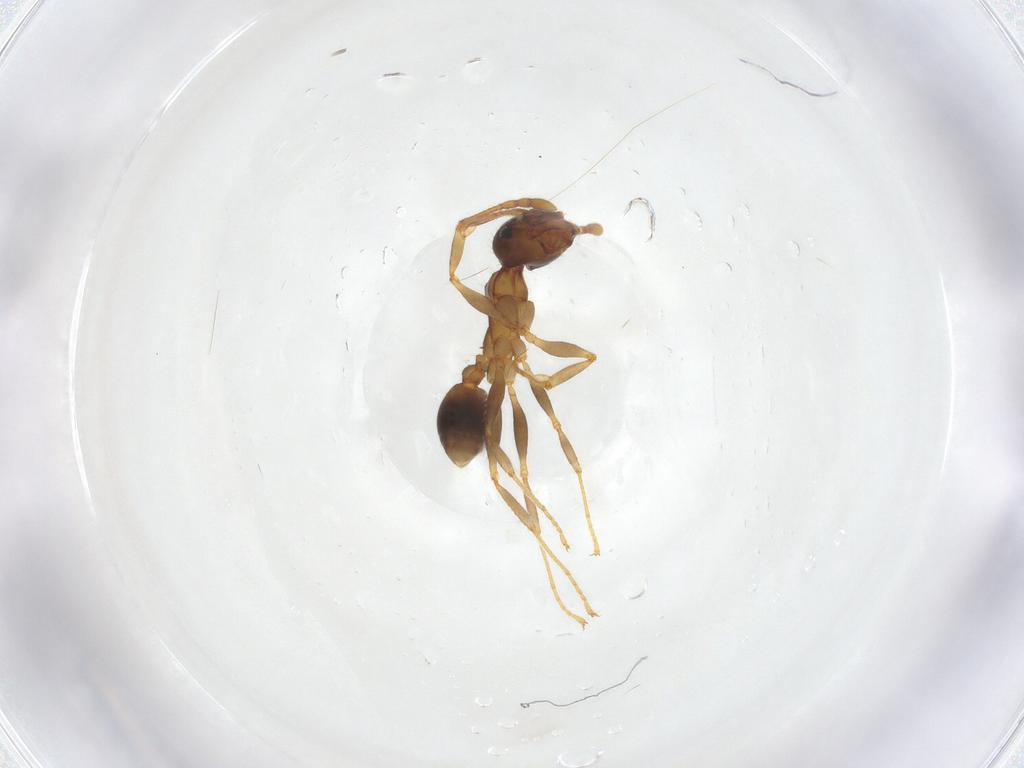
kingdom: Animalia
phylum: Arthropoda
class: Insecta
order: Hymenoptera
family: Formicidae
